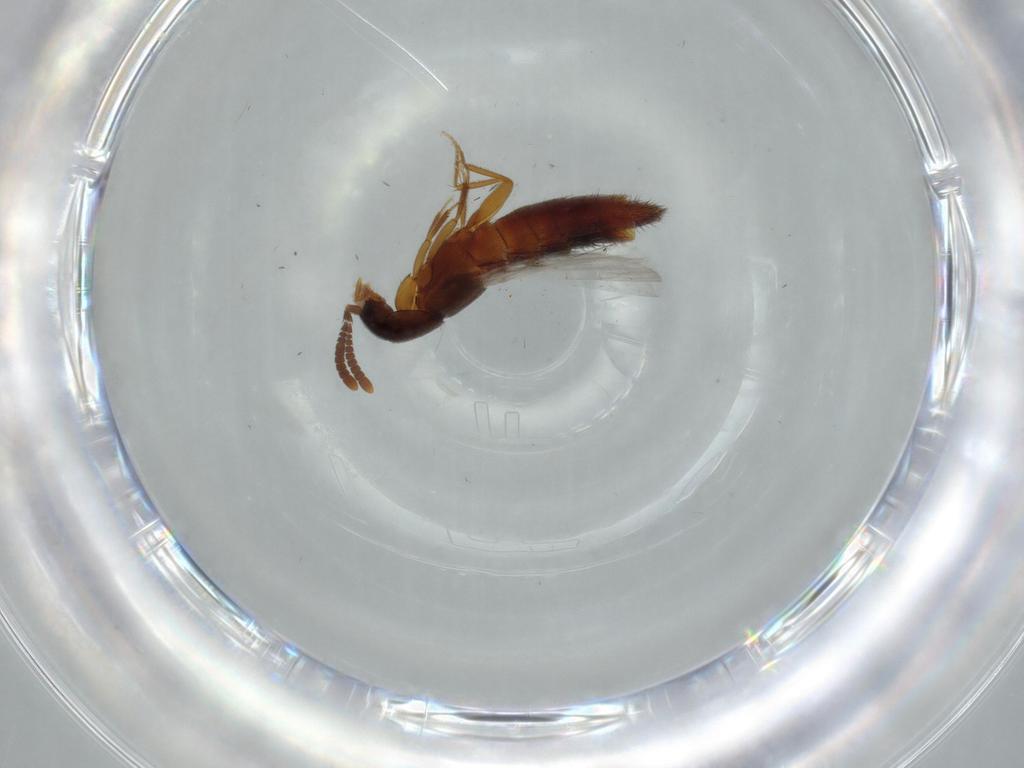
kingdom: Animalia
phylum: Arthropoda
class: Insecta
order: Coleoptera
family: Staphylinidae
